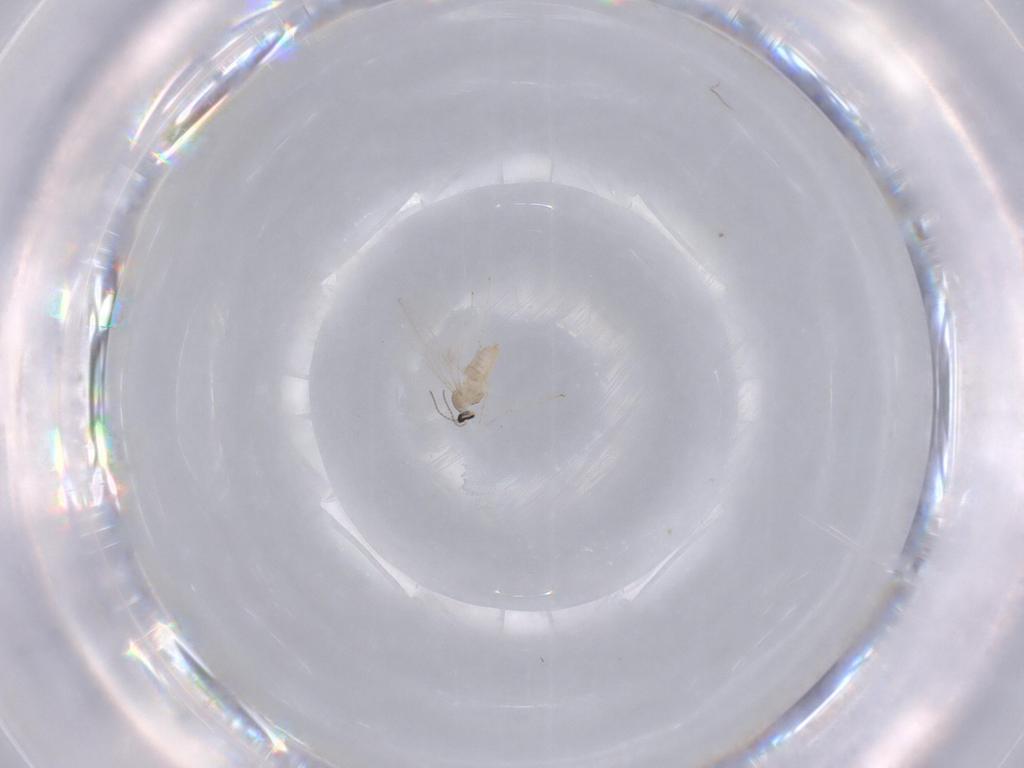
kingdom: Animalia
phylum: Arthropoda
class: Insecta
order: Diptera
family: Cecidomyiidae
